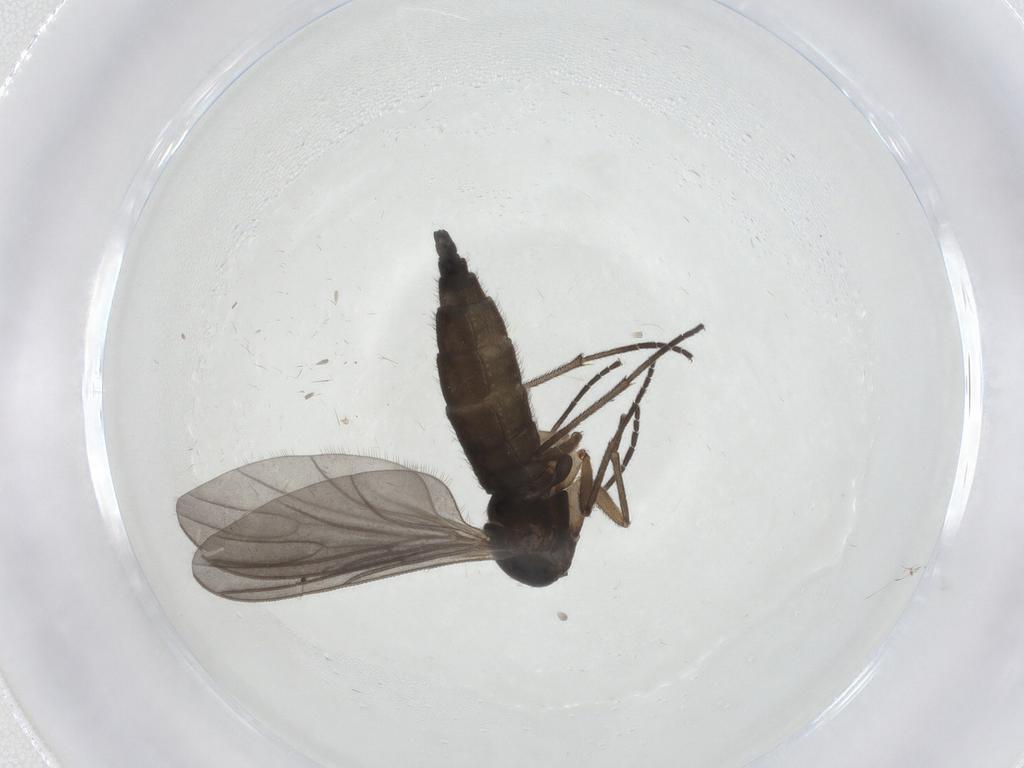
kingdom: Animalia
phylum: Arthropoda
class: Insecta
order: Diptera
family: Sciaridae
